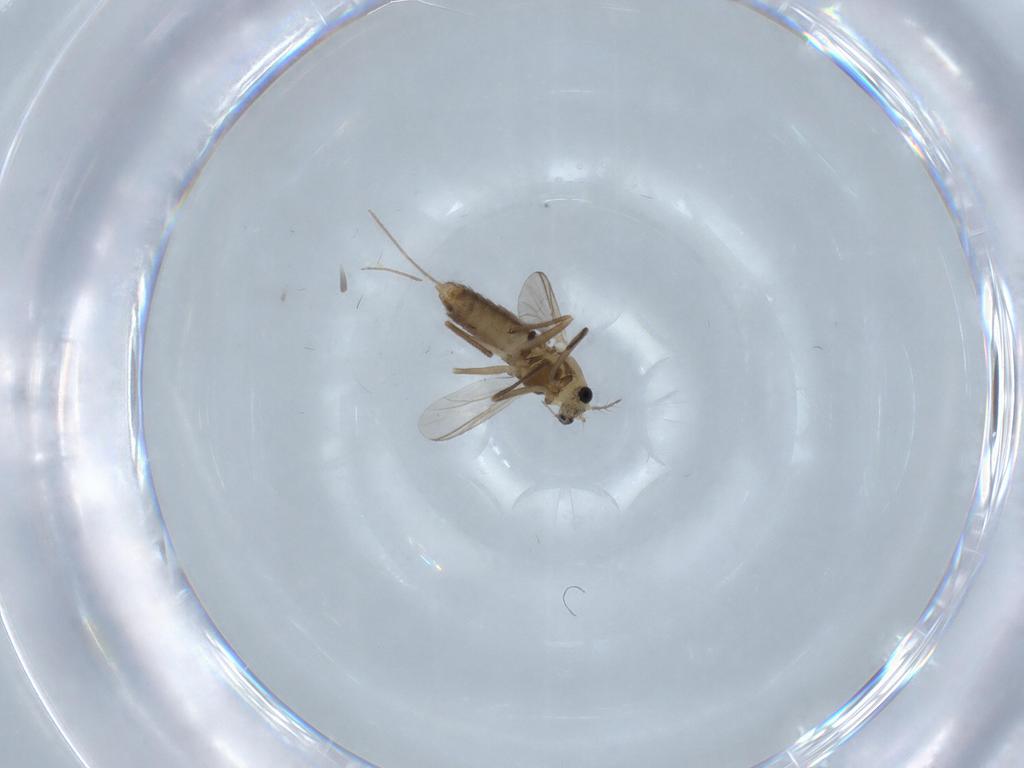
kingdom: Animalia
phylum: Arthropoda
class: Insecta
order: Diptera
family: Chironomidae
